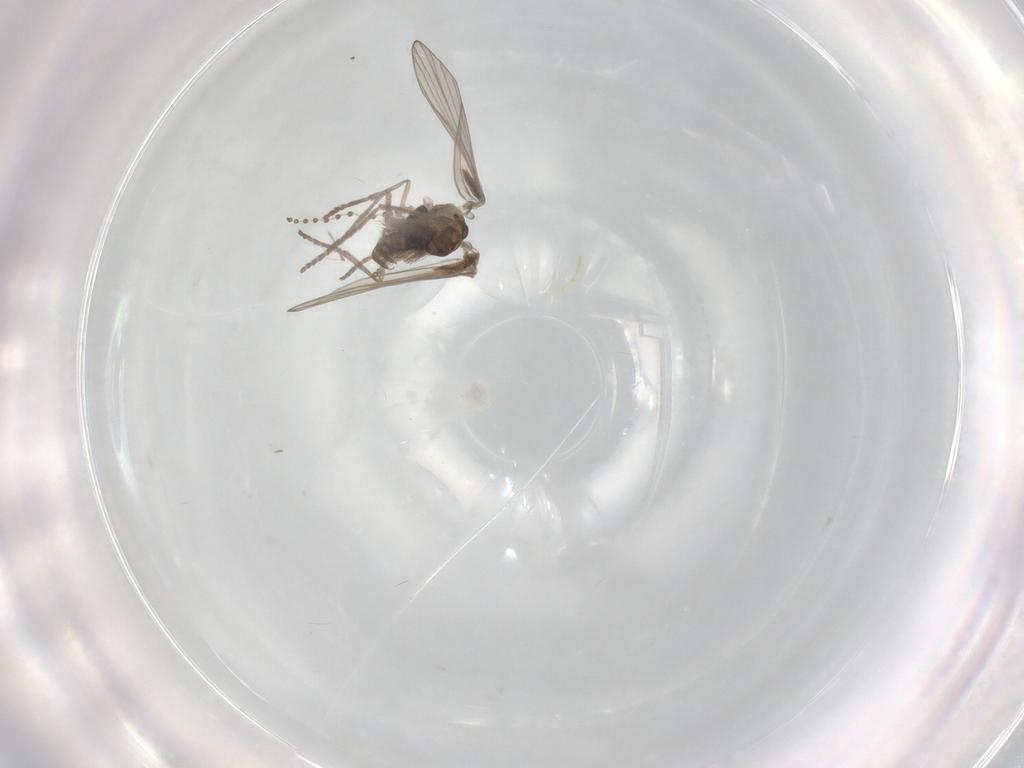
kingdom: Animalia
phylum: Arthropoda
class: Insecta
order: Diptera
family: Psychodidae
